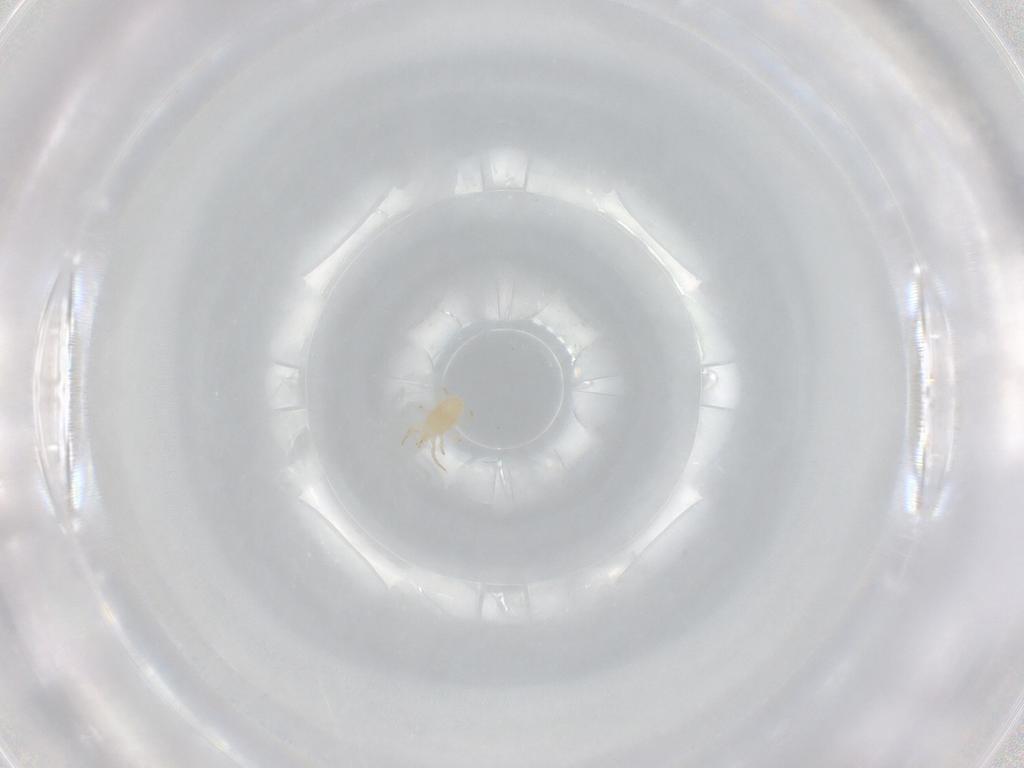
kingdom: Animalia
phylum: Arthropoda
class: Arachnida
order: Mesostigmata
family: Phytoseiidae
